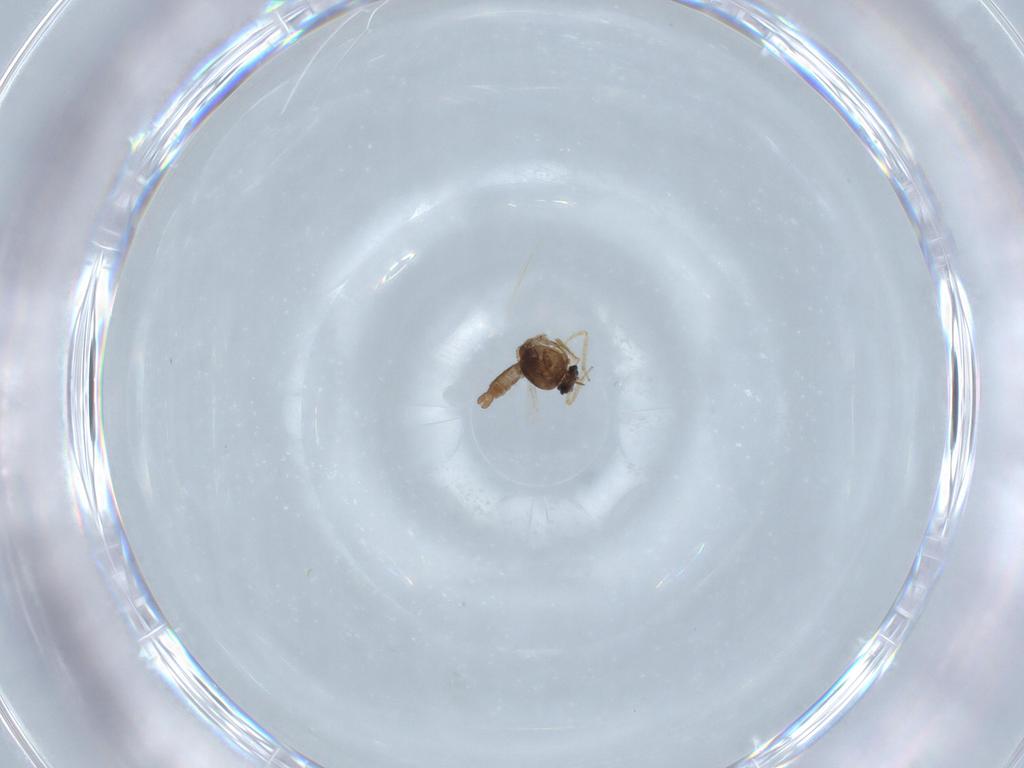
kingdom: Animalia
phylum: Arthropoda
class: Insecta
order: Diptera
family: Ceratopogonidae
